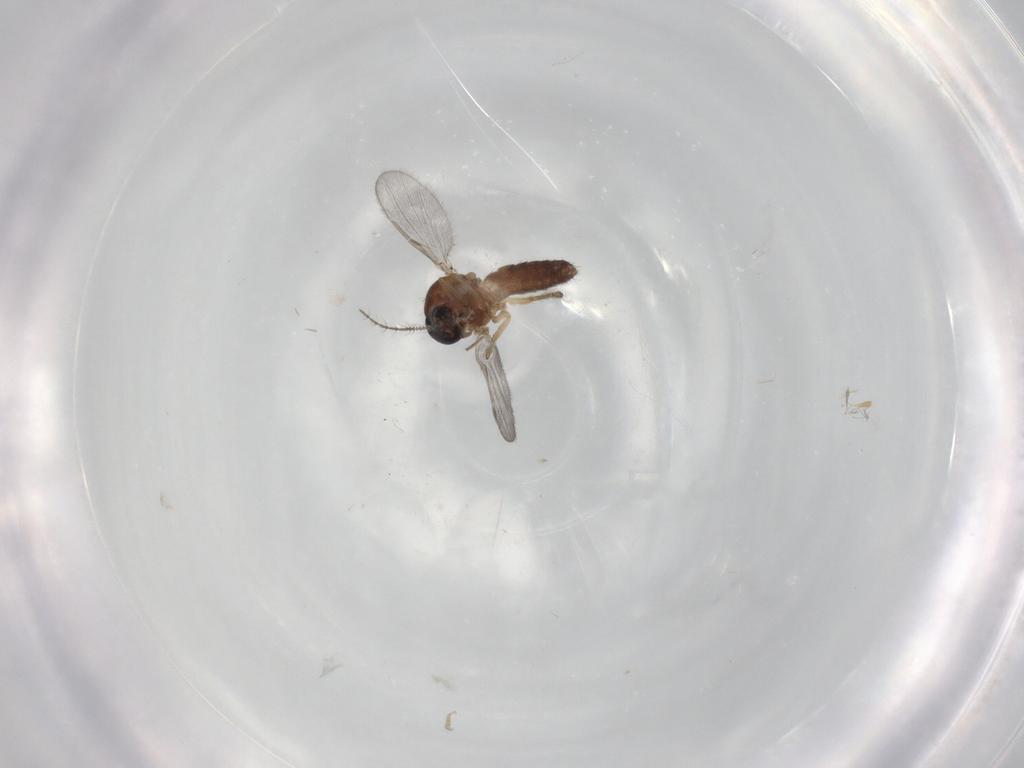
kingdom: Animalia
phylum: Arthropoda
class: Insecta
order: Diptera
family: Ceratopogonidae
